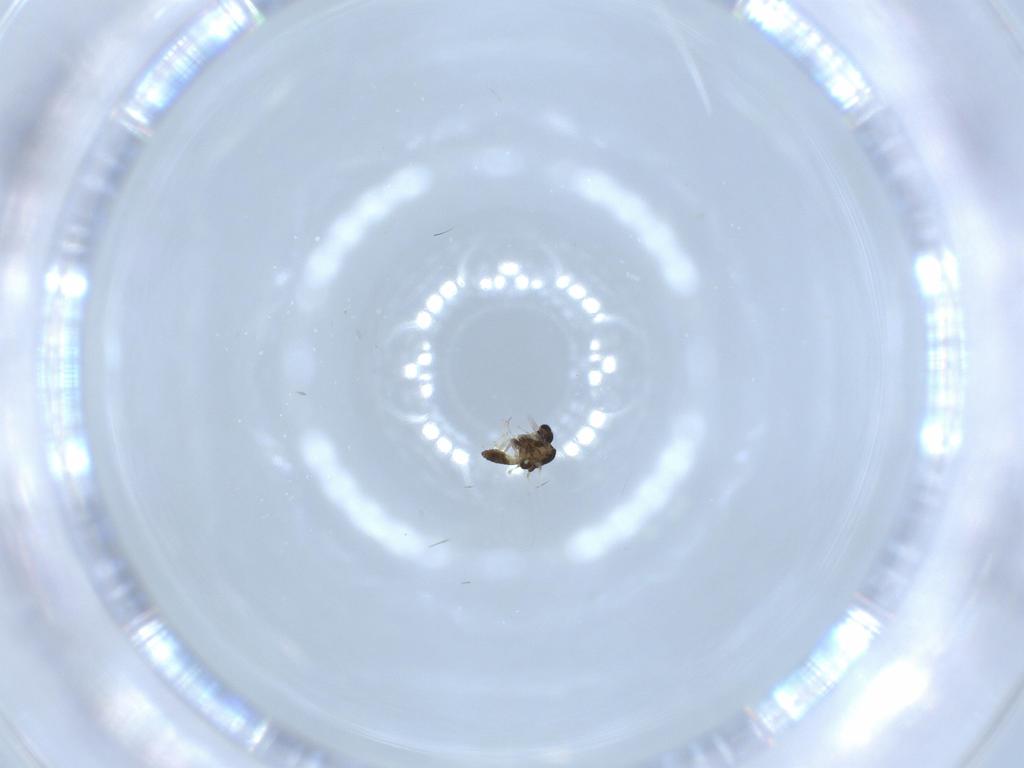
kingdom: Animalia
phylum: Arthropoda
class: Insecta
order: Diptera
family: Chironomidae
